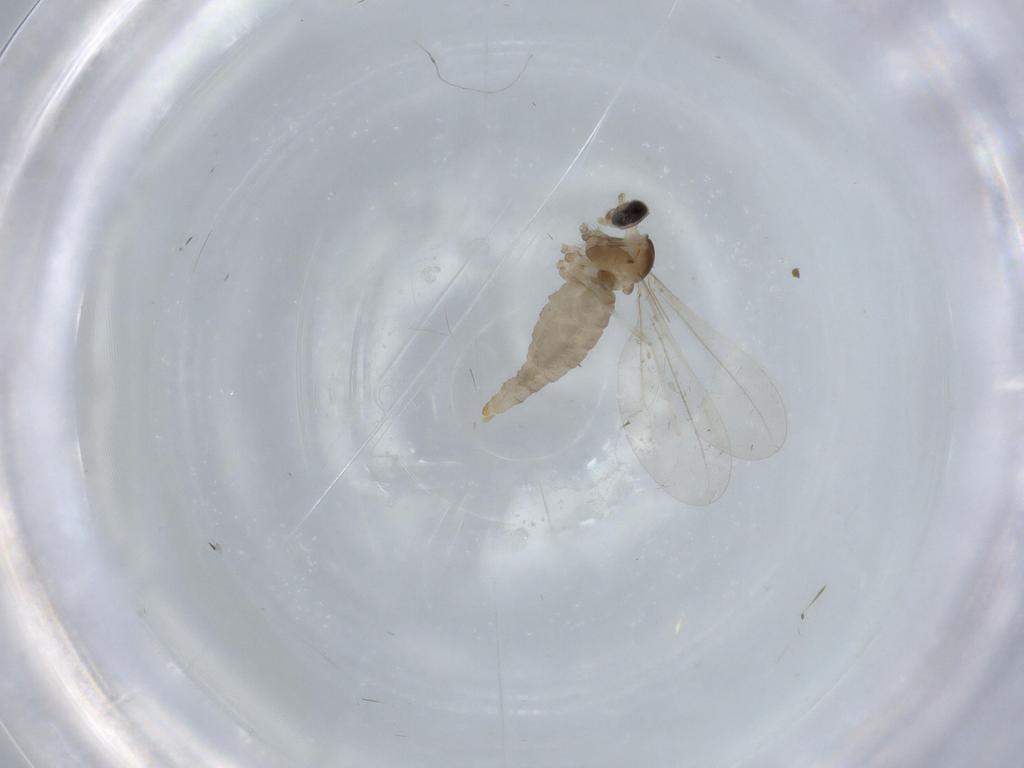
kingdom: Animalia
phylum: Arthropoda
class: Insecta
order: Diptera
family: Cecidomyiidae
